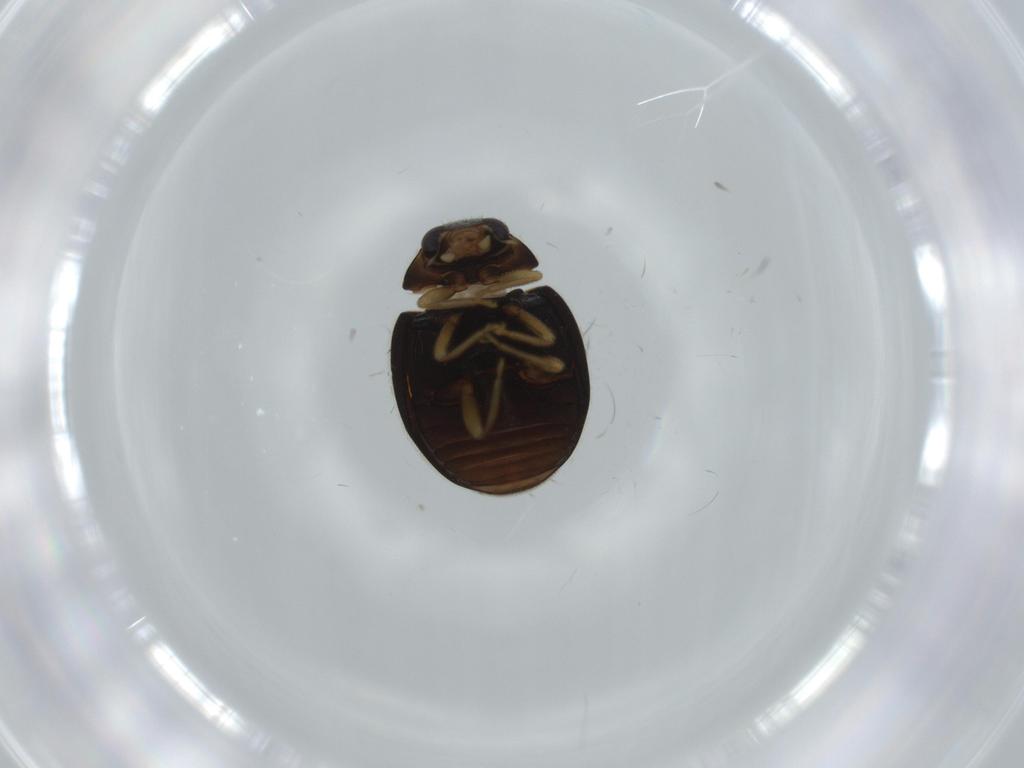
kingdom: Animalia
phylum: Arthropoda
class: Insecta
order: Coleoptera
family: Coccinellidae
